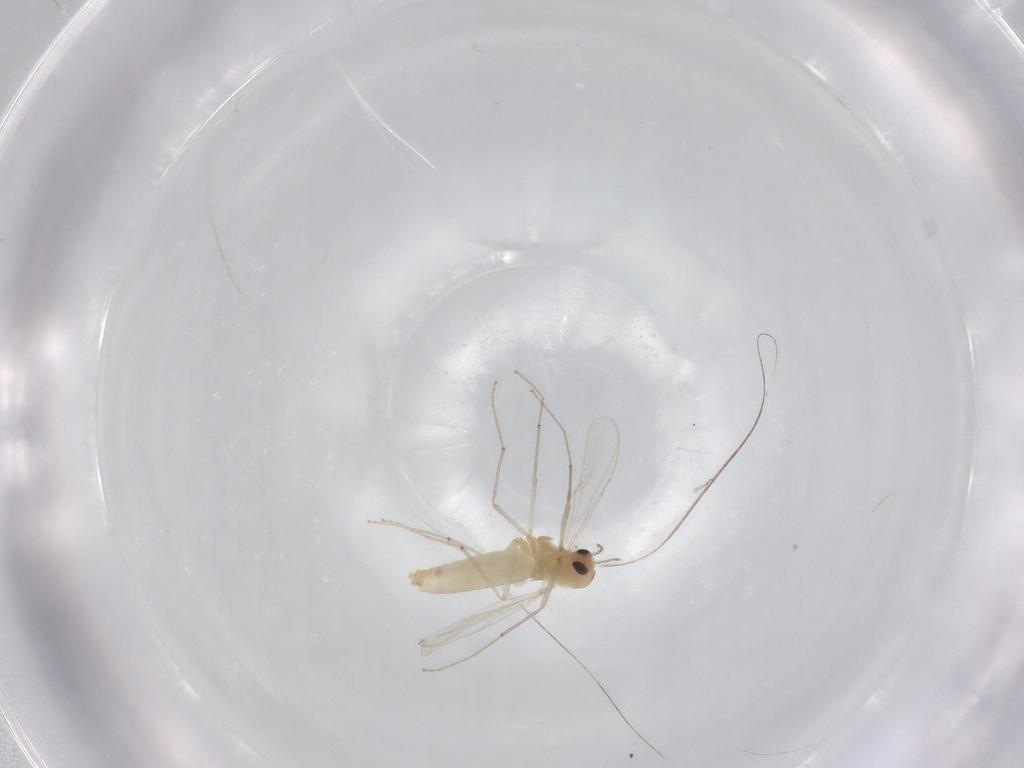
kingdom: Animalia
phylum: Arthropoda
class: Insecta
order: Diptera
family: Chironomidae
